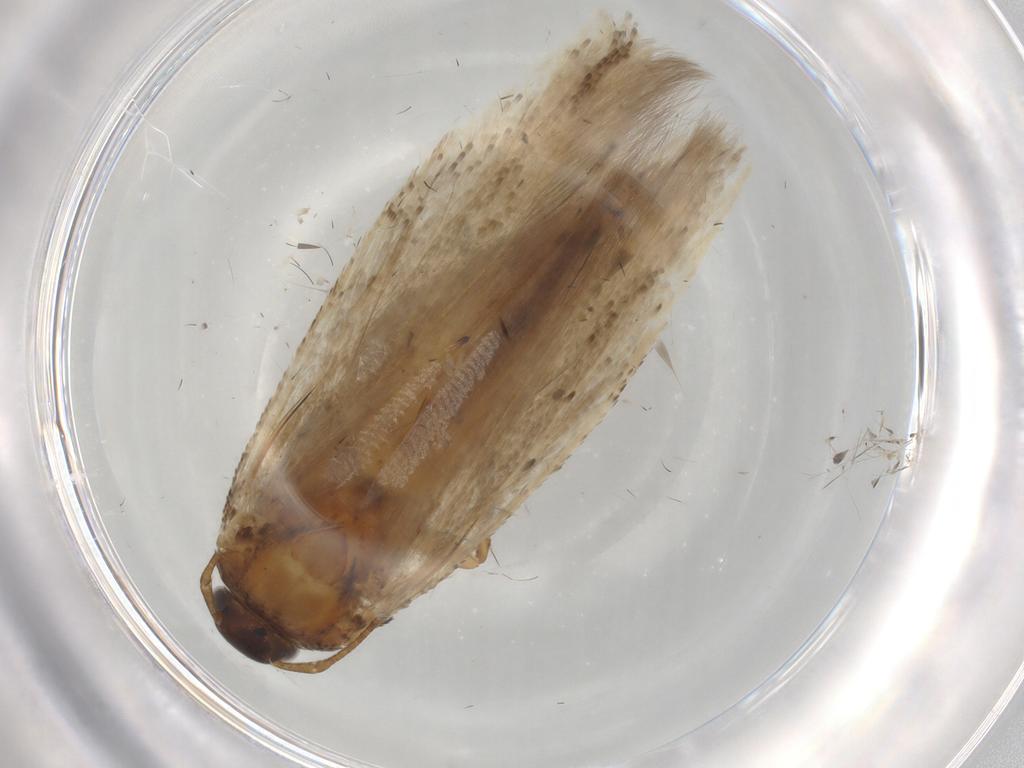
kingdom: Animalia
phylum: Arthropoda
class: Insecta
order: Lepidoptera
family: Gelechiidae
